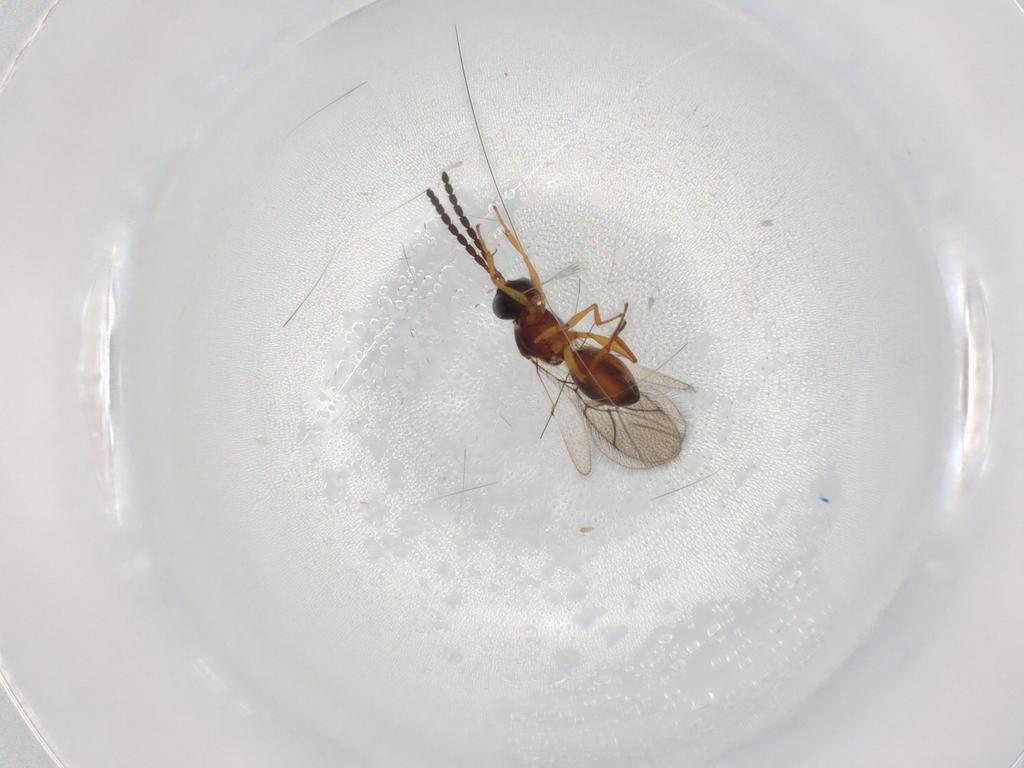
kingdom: Animalia
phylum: Arthropoda
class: Insecta
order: Hymenoptera
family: Figitidae
